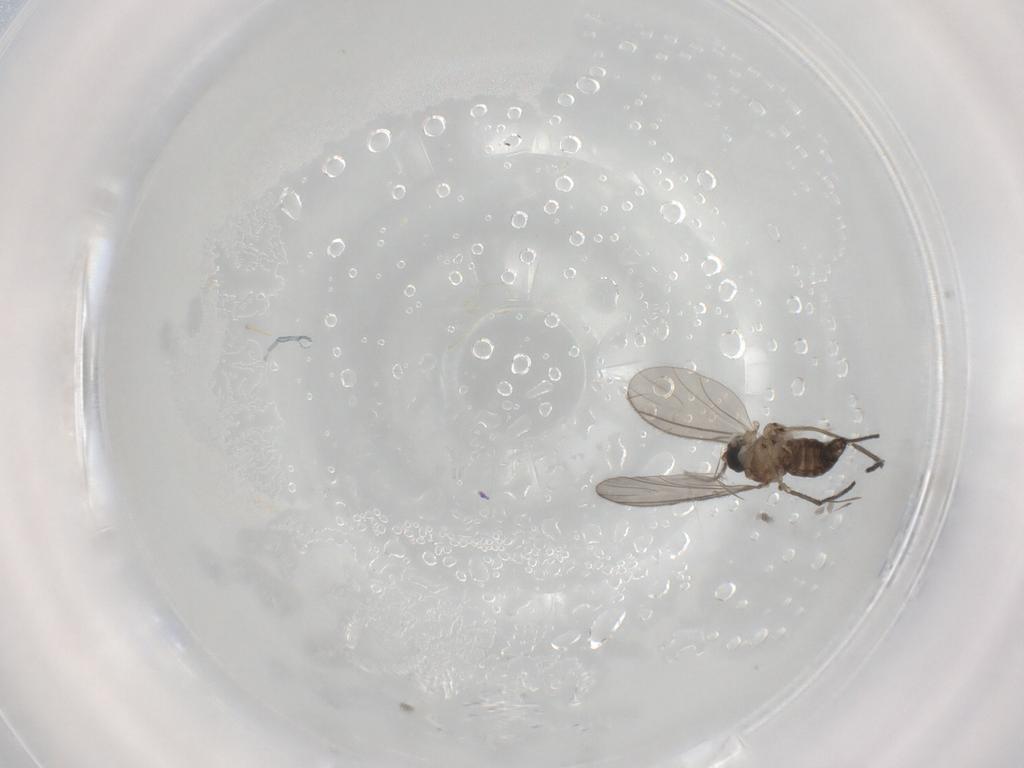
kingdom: Animalia
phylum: Arthropoda
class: Insecta
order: Diptera
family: Sciaridae
